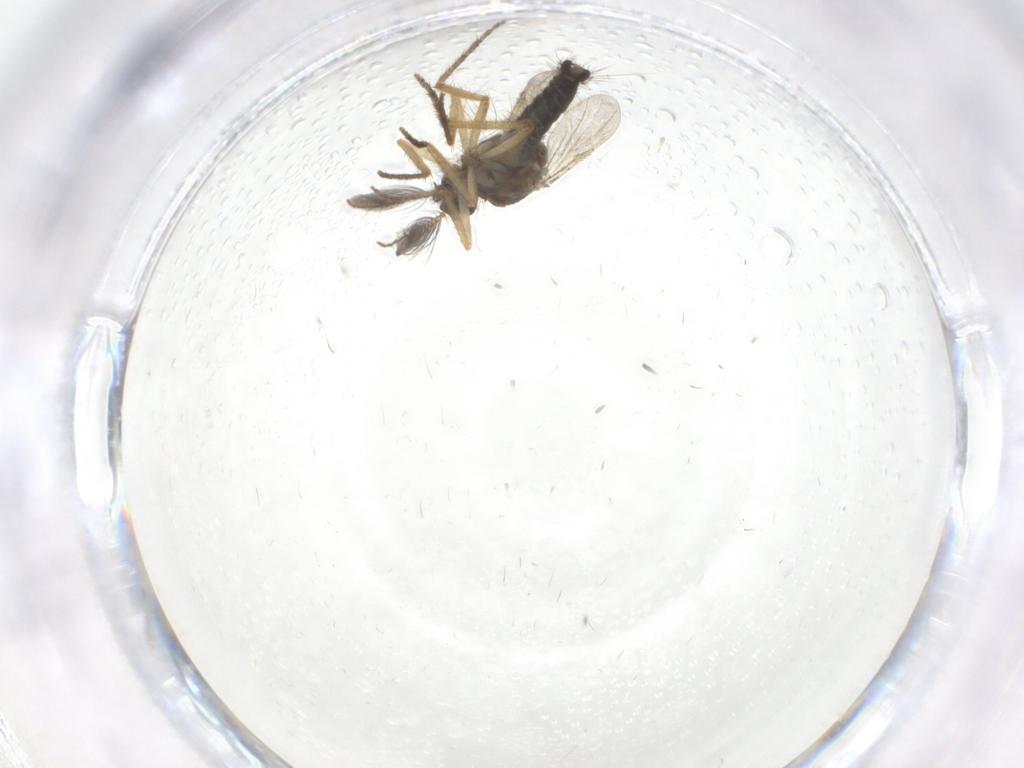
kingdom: Animalia
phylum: Arthropoda
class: Insecta
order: Diptera
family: Ceratopogonidae
